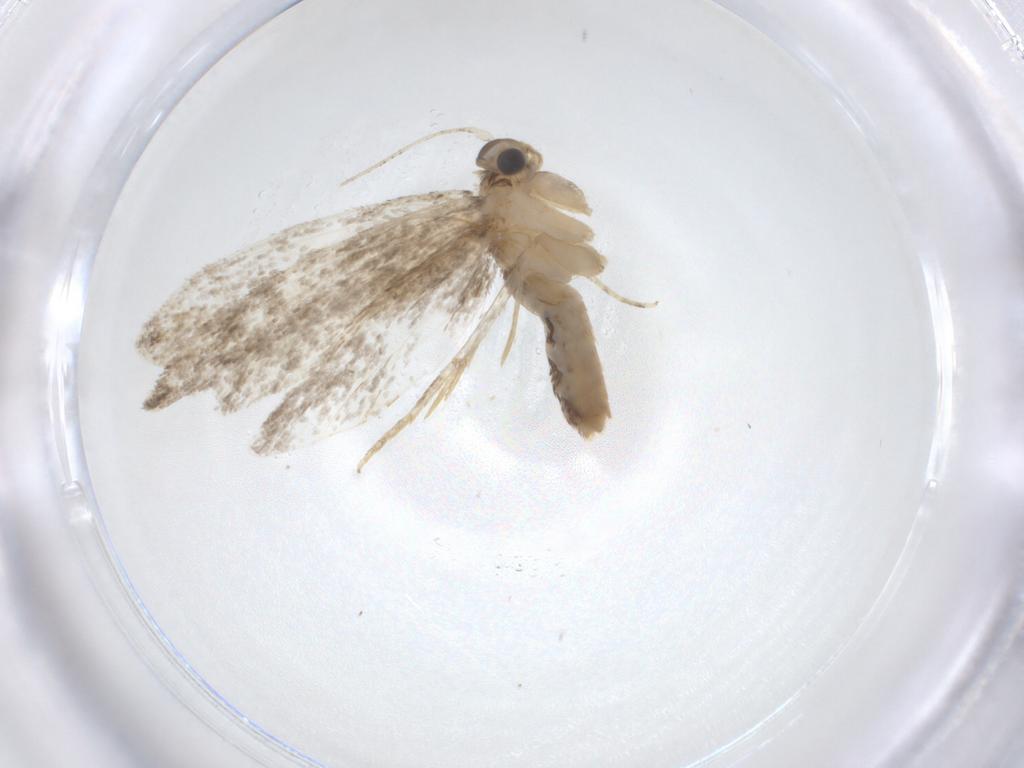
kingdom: Animalia
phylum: Arthropoda
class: Insecta
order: Lepidoptera
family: Tineidae
